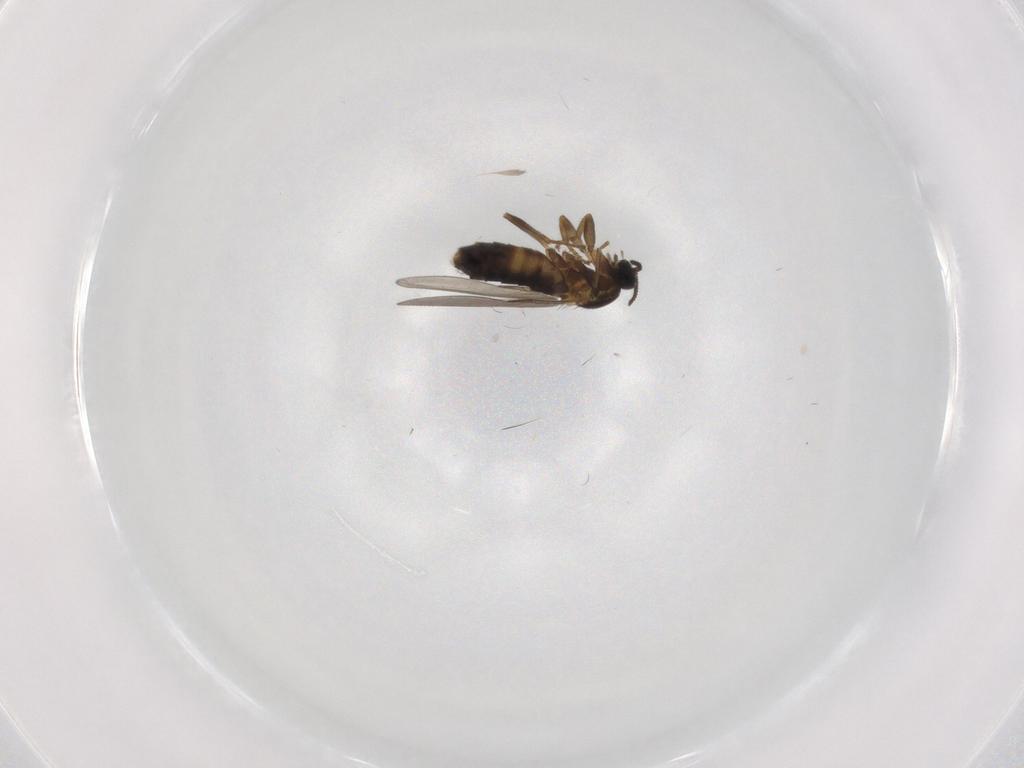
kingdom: Animalia
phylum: Arthropoda
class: Insecta
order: Diptera
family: Scatopsidae
